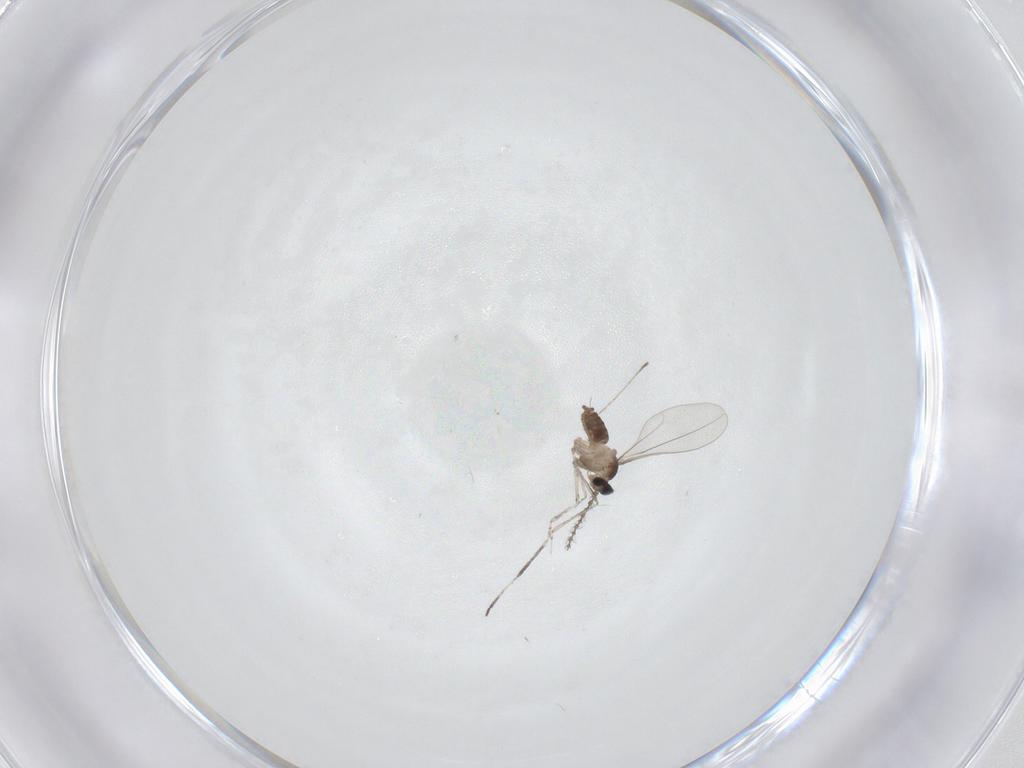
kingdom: Animalia
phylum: Arthropoda
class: Insecta
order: Diptera
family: Cecidomyiidae
